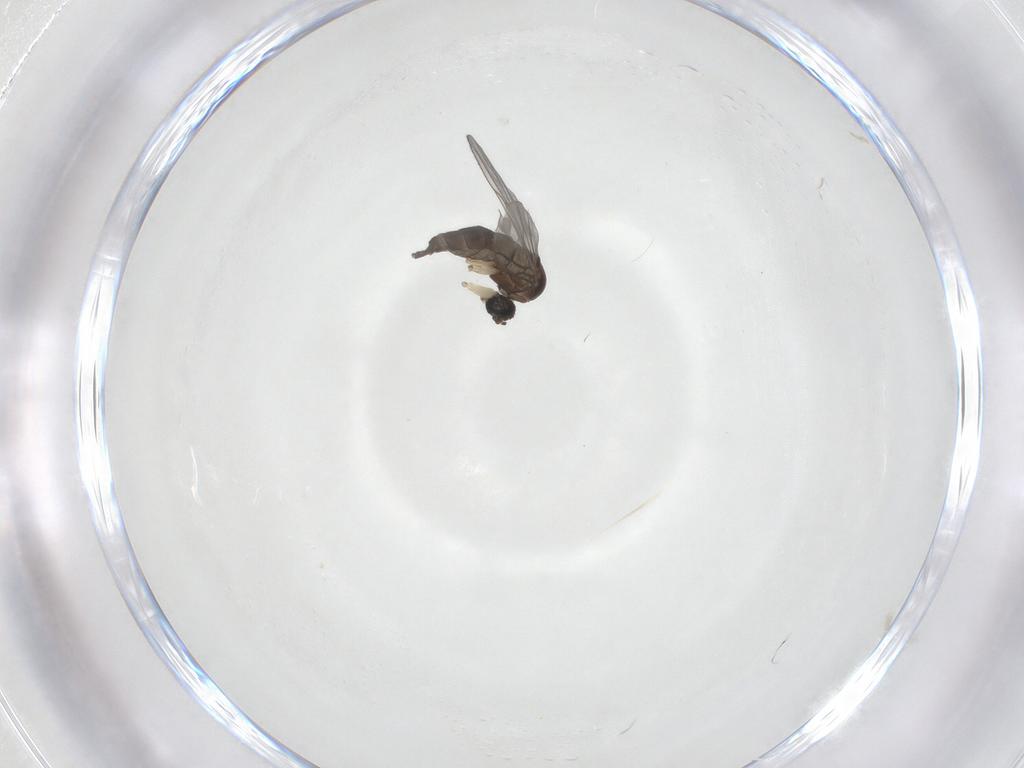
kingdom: Animalia
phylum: Arthropoda
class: Insecta
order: Diptera
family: Sciaridae
